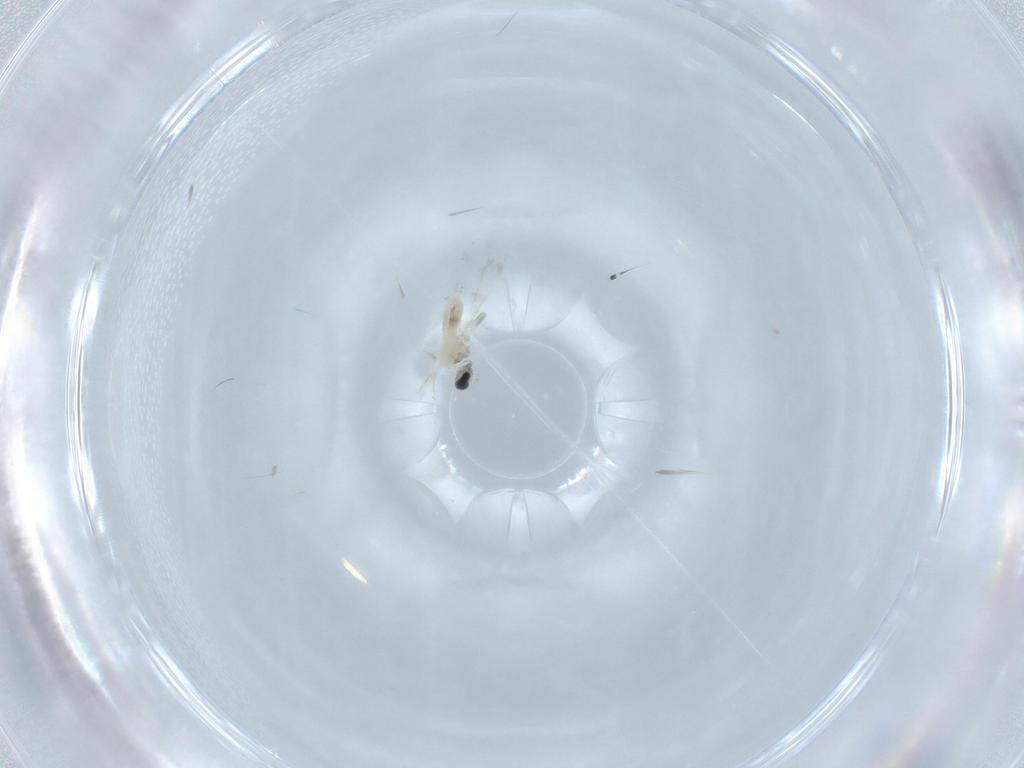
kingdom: Animalia
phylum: Arthropoda
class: Insecta
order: Diptera
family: Cecidomyiidae
